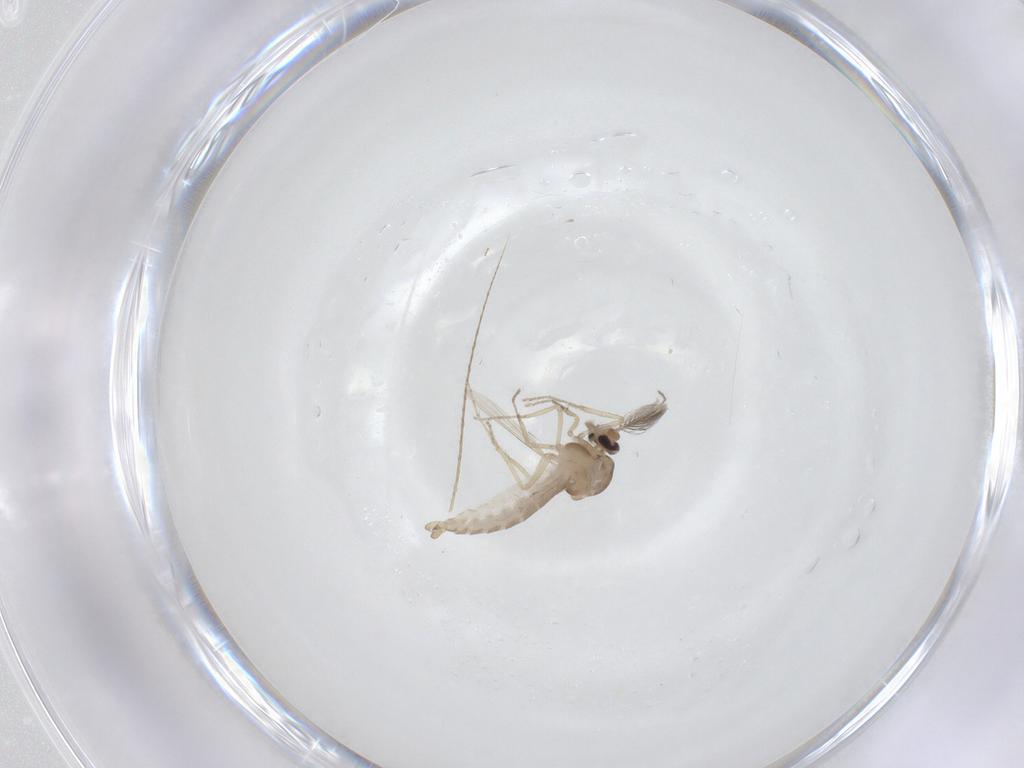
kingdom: Animalia
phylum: Arthropoda
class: Insecta
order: Diptera
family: Ceratopogonidae
